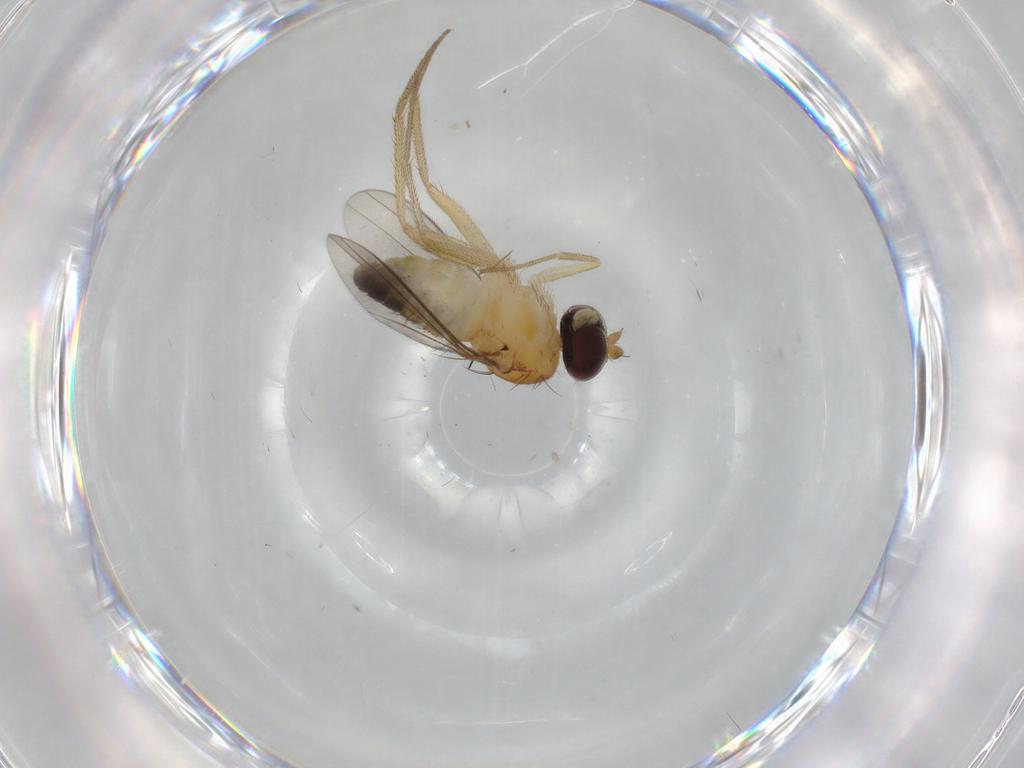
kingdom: Animalia
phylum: Arthropoda
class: Insecta
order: Diptera
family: Dolichopodidae
